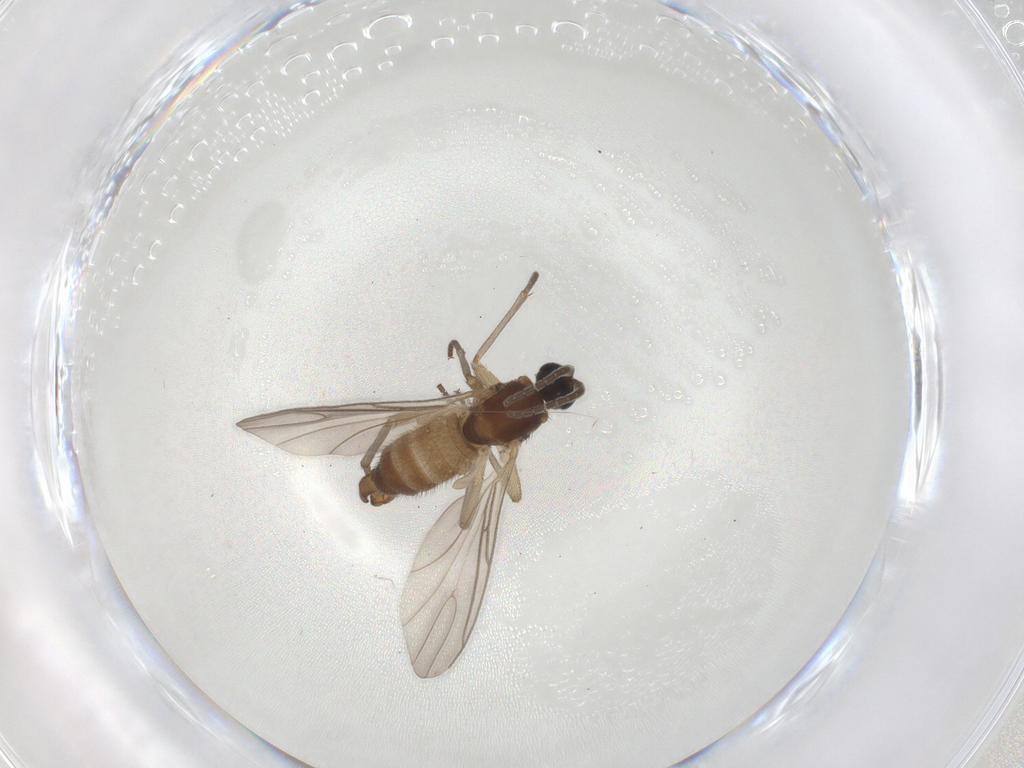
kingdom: Animalia
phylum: Arthropoda
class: Insecta
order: Diptera
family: Sciaridae
